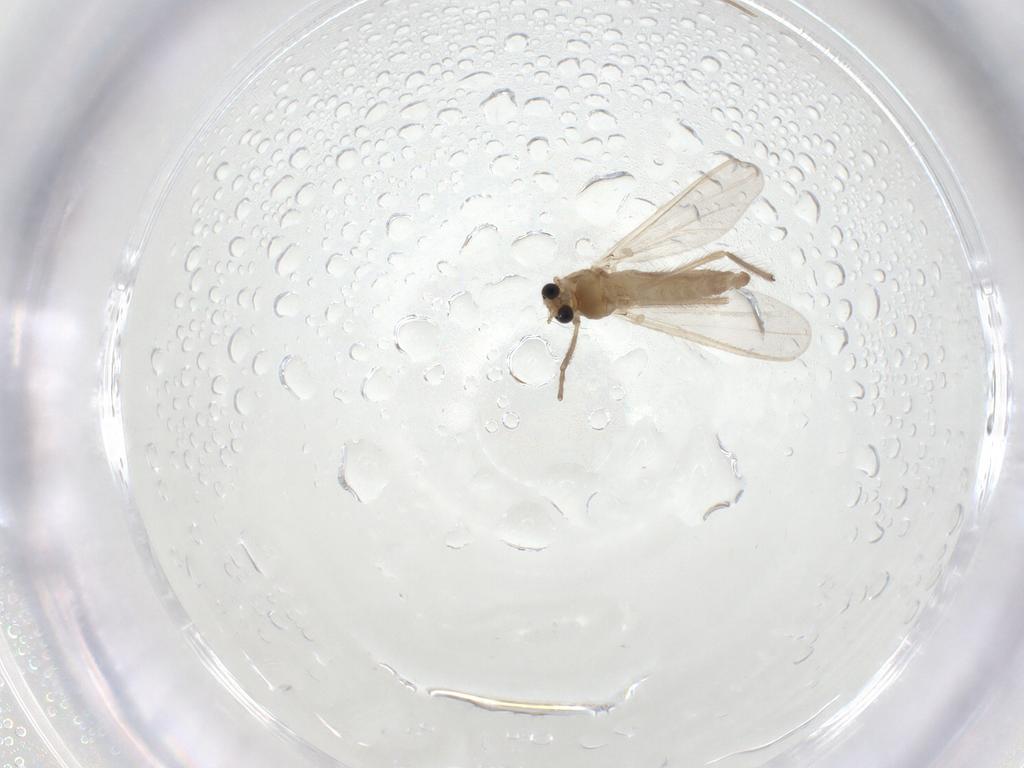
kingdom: Animalia
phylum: Arthropoda
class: Insecta
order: Diptera
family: Chironomidae
